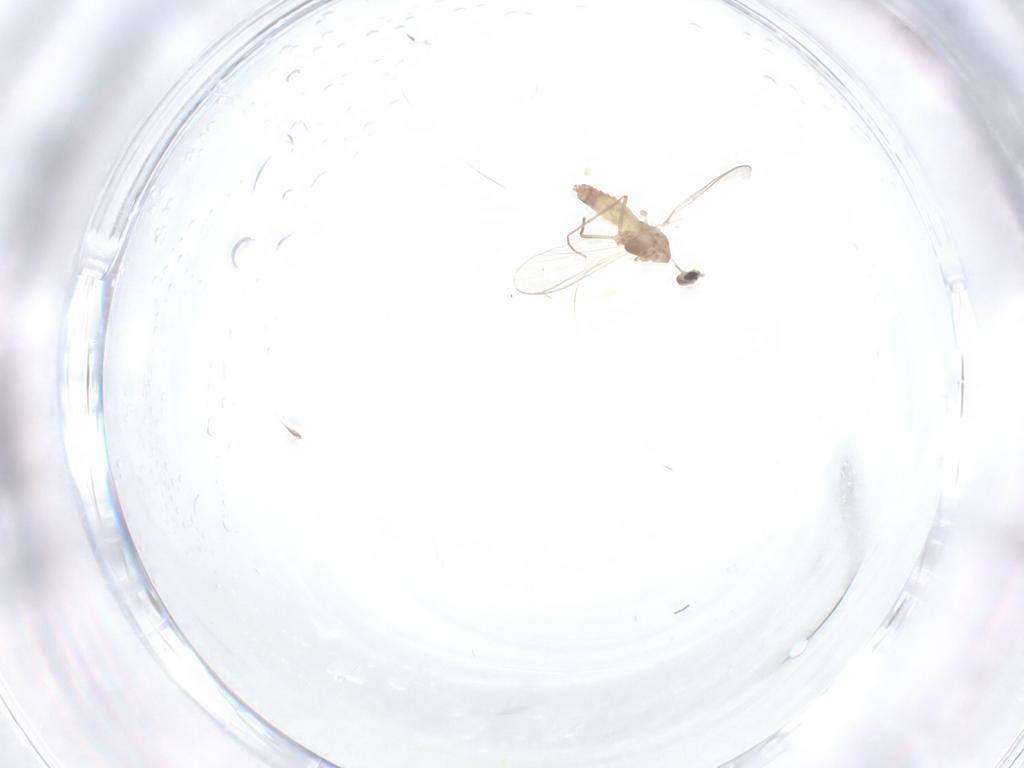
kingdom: Animalia
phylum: Arthropoda
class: Insecta
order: Diptera
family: Chironomidae
